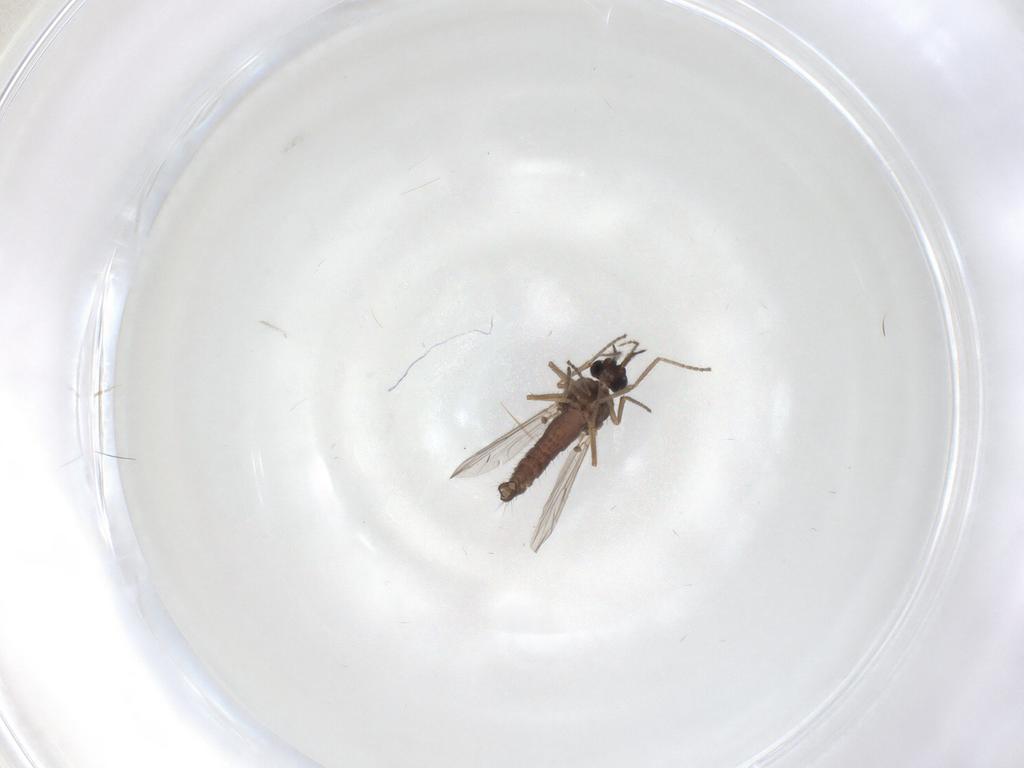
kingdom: Animalia
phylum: Arthropoda
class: Insecta
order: Diptera
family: Ceratopogonidae
